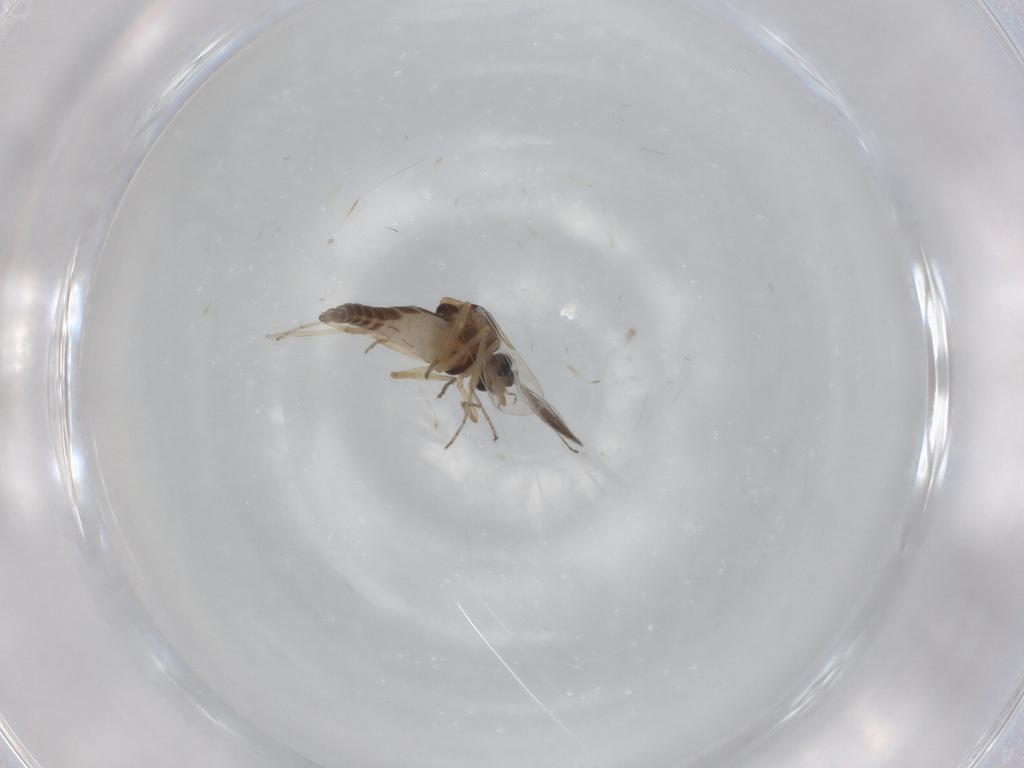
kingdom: Animalia
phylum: Arthropoda
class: Insecta
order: Diptera
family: Ceratopogonidae
